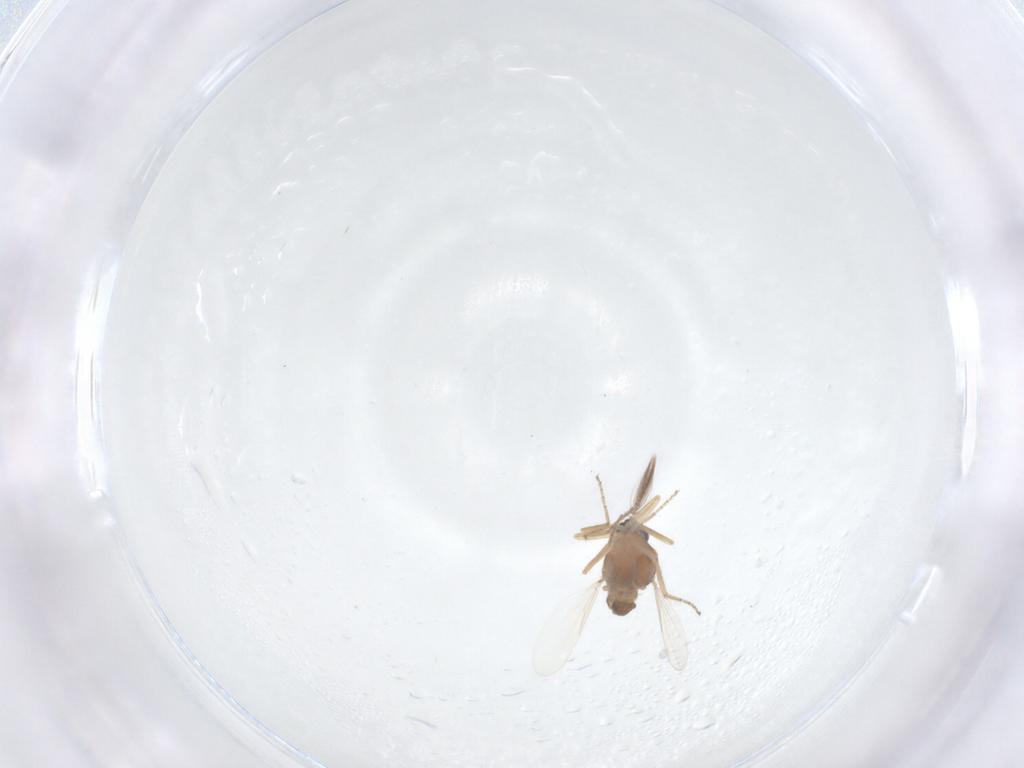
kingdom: Animalia
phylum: Arthropoda
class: Insecta
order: Diptera
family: Ceratopogonidae
